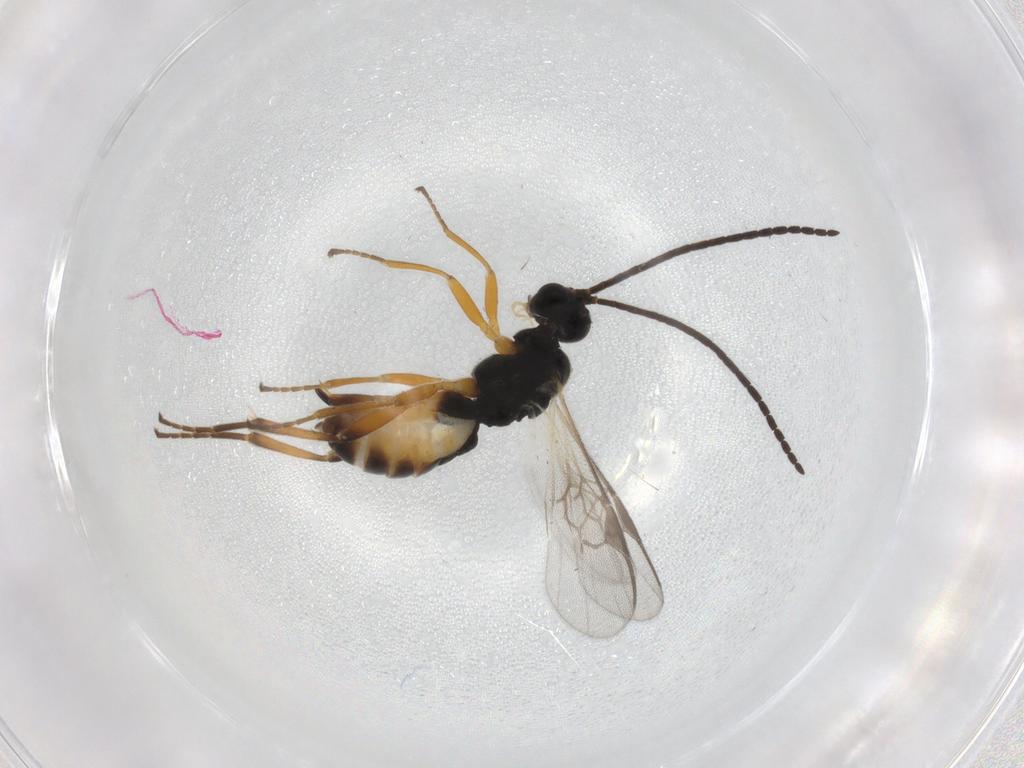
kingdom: Animalia
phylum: Arthropoda
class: Insecta
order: Hymenoptera
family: Braconidae
